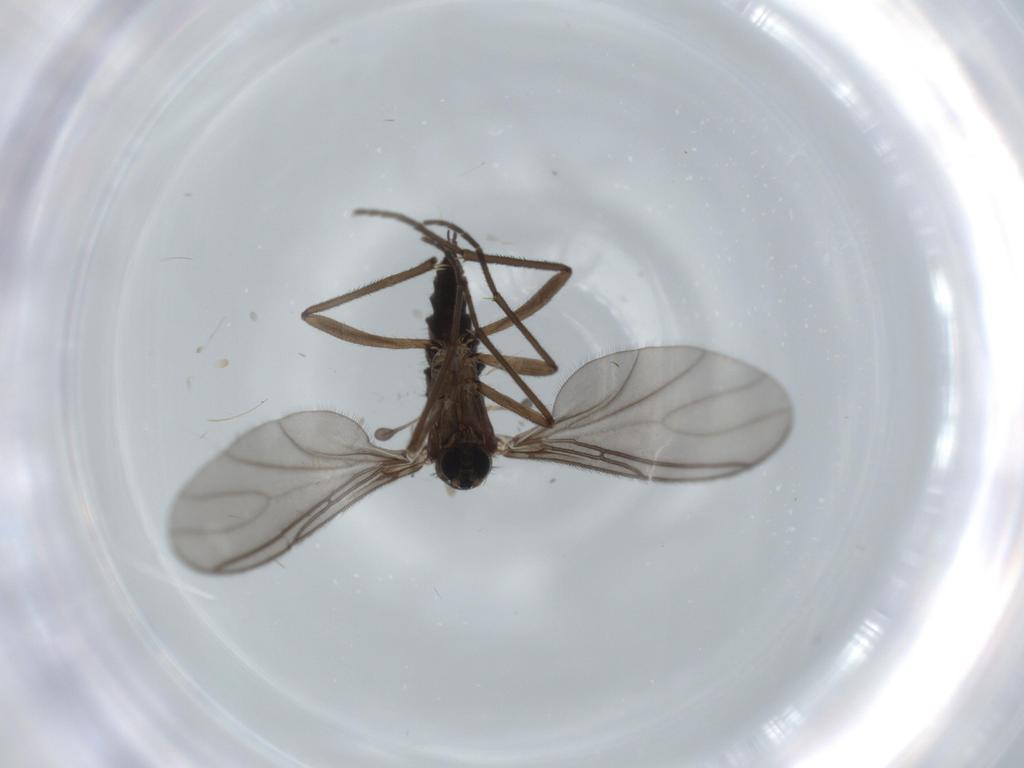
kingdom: Animalia
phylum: Arthropoda
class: Insecta
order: Diptera
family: Sciaridae
